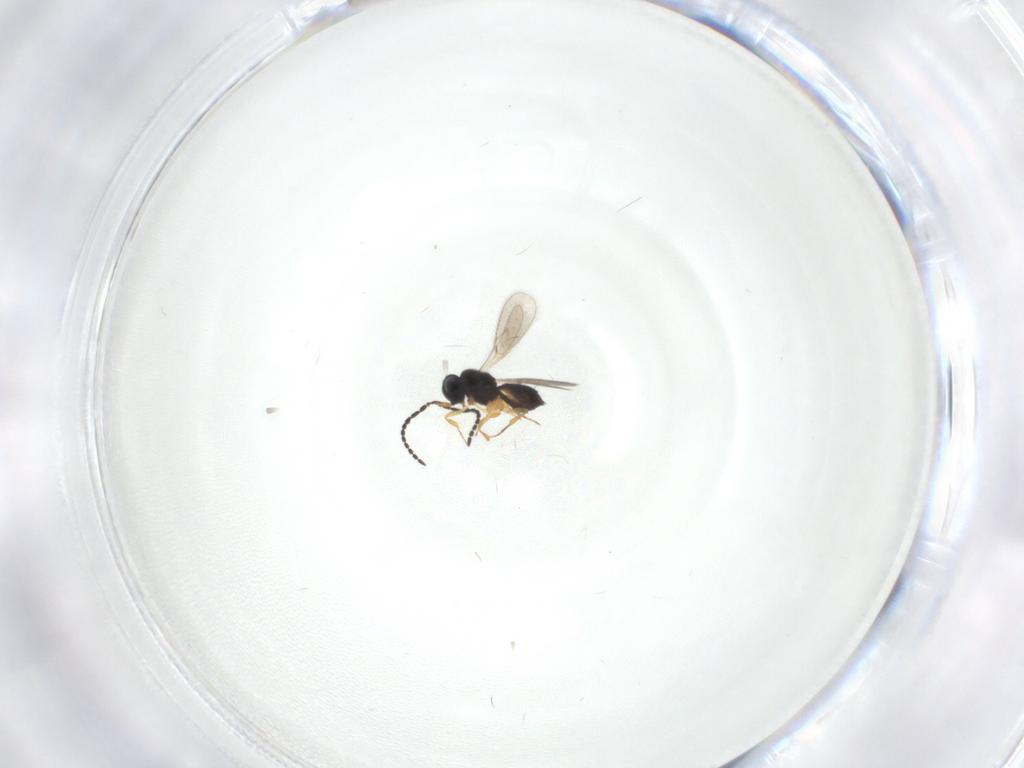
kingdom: Animalia
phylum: Arthropoda
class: Insecta
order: Hymenoptera
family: Scelionidae
